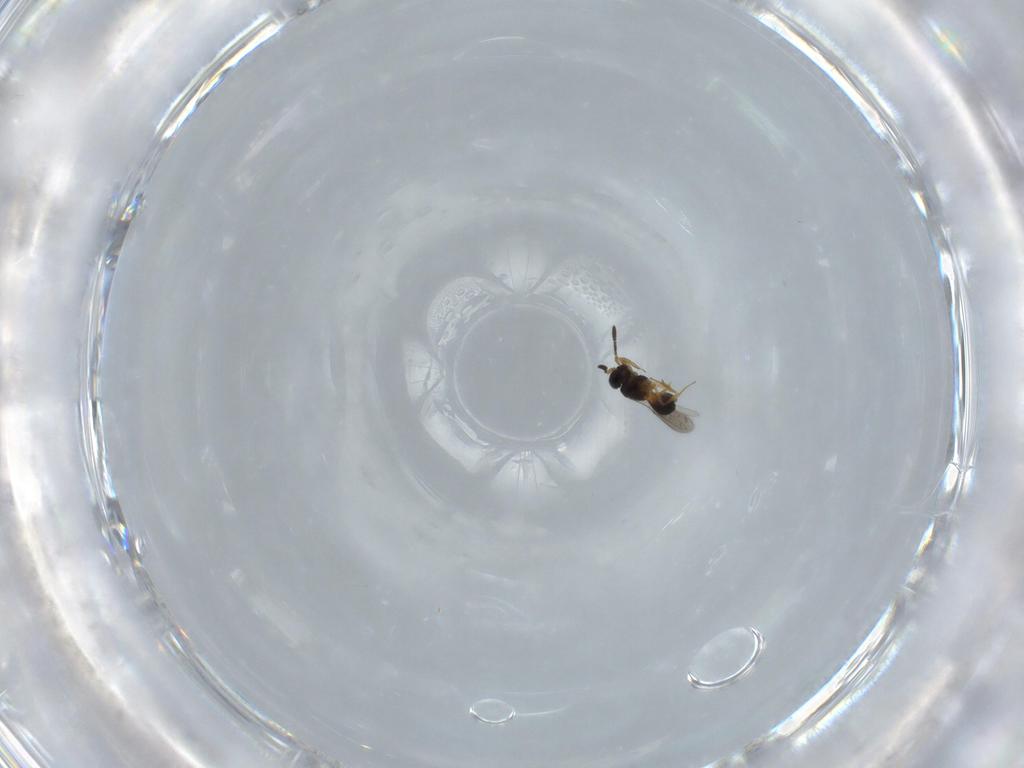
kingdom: Animalia
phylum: Arthropoda
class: Insecta
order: Hymenoptera
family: Scelionidae
